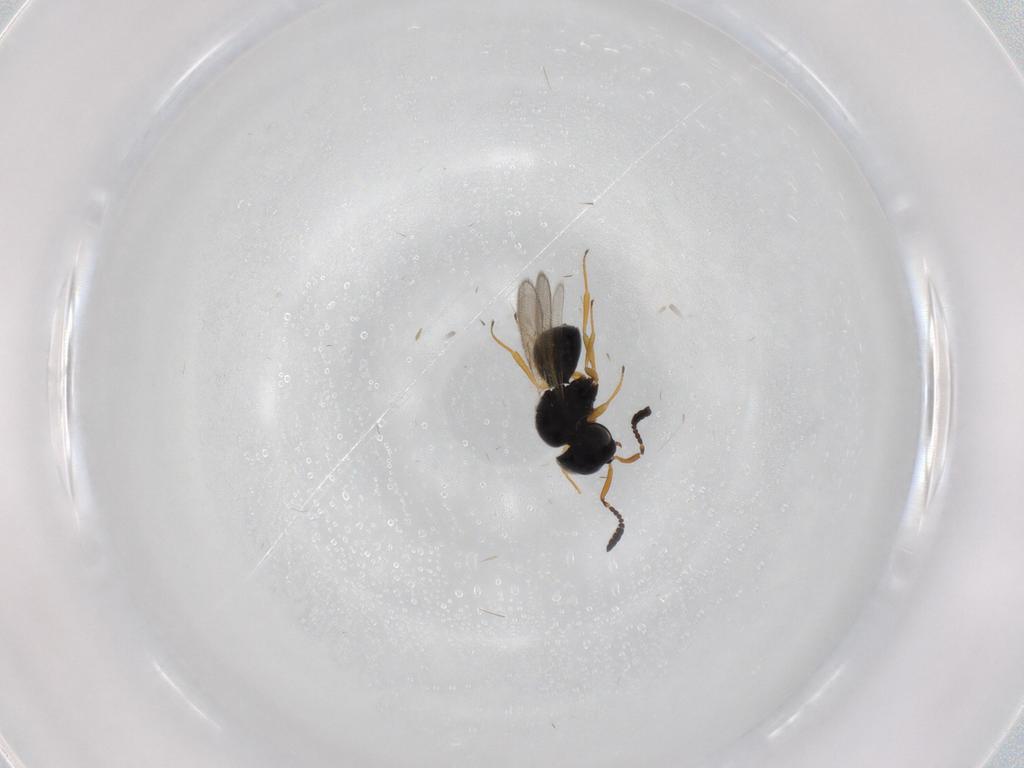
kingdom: Animalia
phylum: Arthropoda
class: Insecta
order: Hymenoptera
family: Scelionidae
